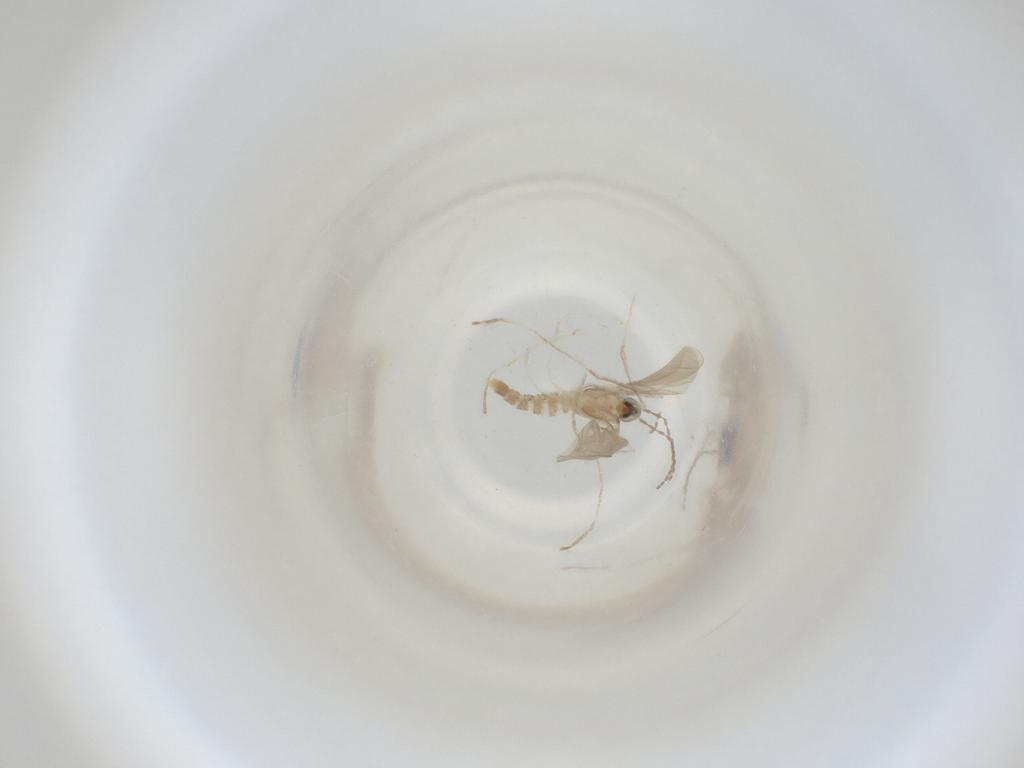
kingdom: Animalia
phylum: Arthropoda
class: Insecta
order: Diptera
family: Cecidomyiidae
